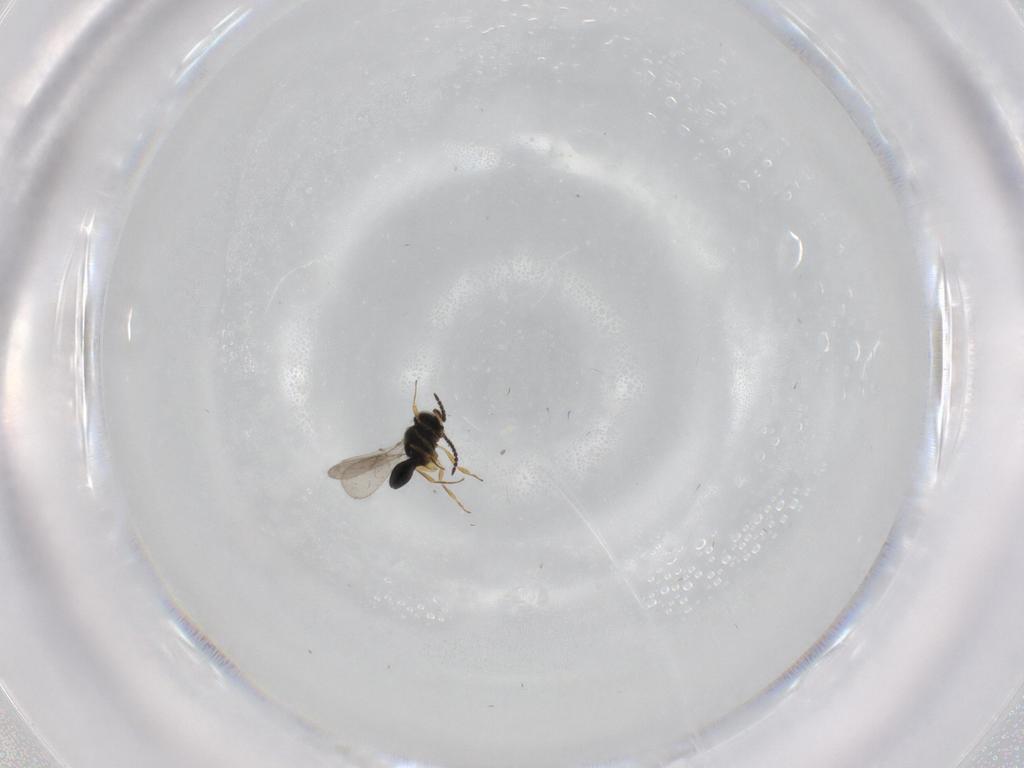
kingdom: Animalia
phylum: Arthropoda
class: Insecta
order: Hymenoptera
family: Scelionidae
